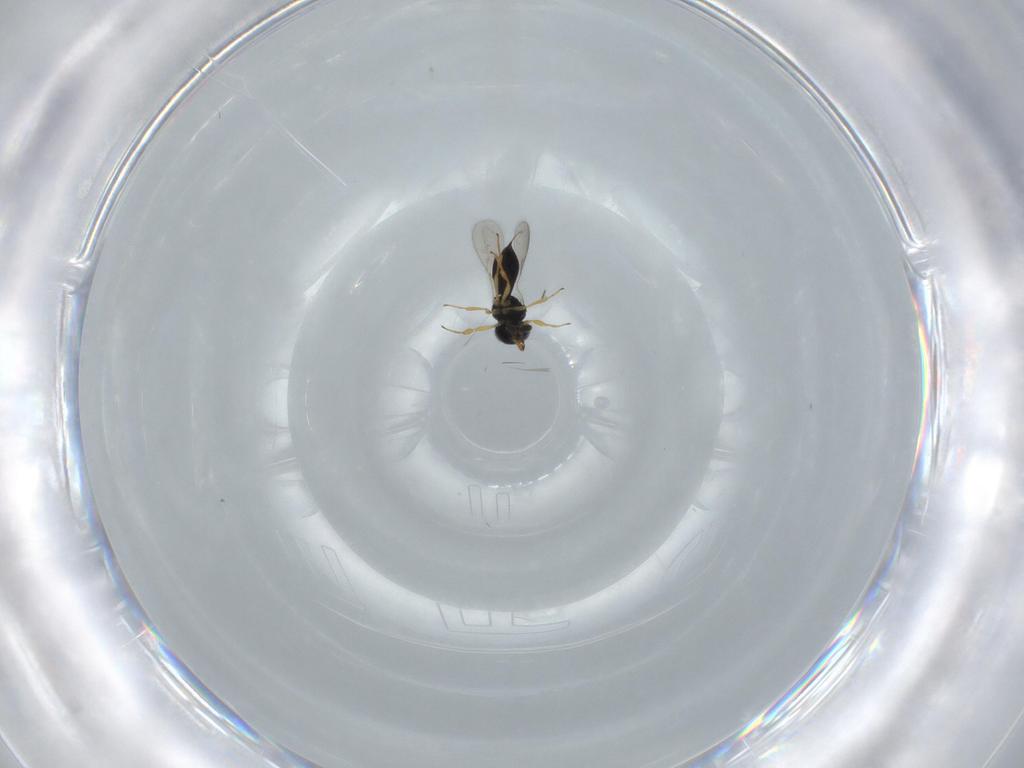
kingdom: Animalia
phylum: Arthropoda
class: Insecta
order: Hymenoptera
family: Scelionidae
